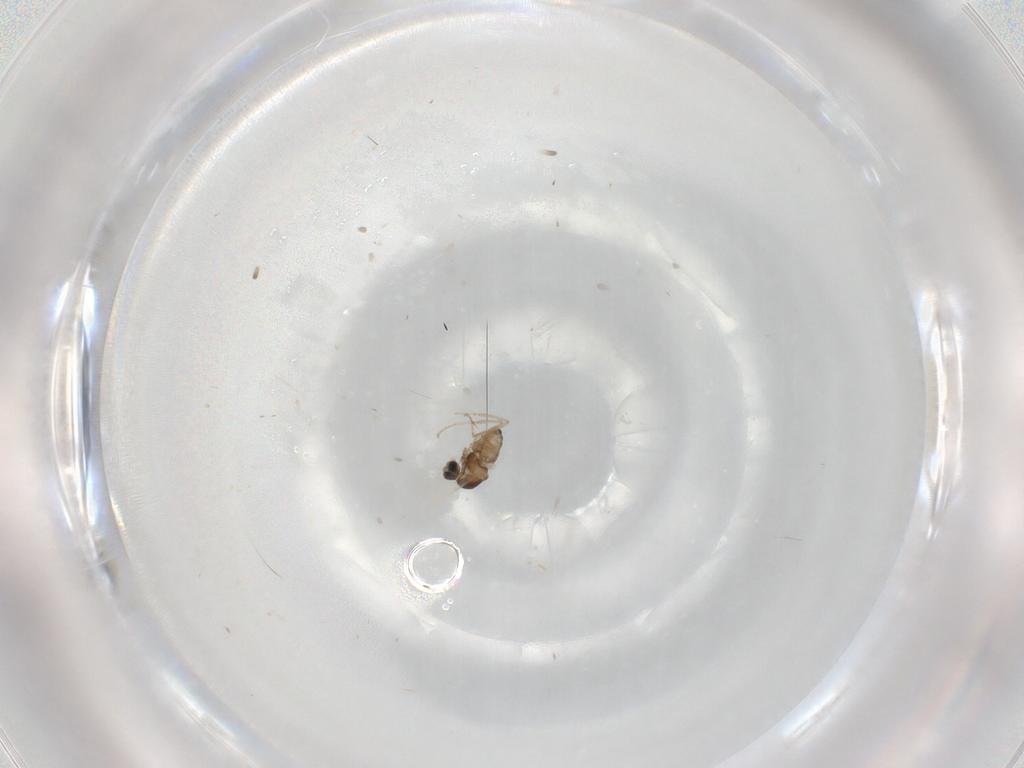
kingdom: Animalia
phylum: Arthropoda
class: Insecta
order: Diptera
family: Cecidomyiidae
